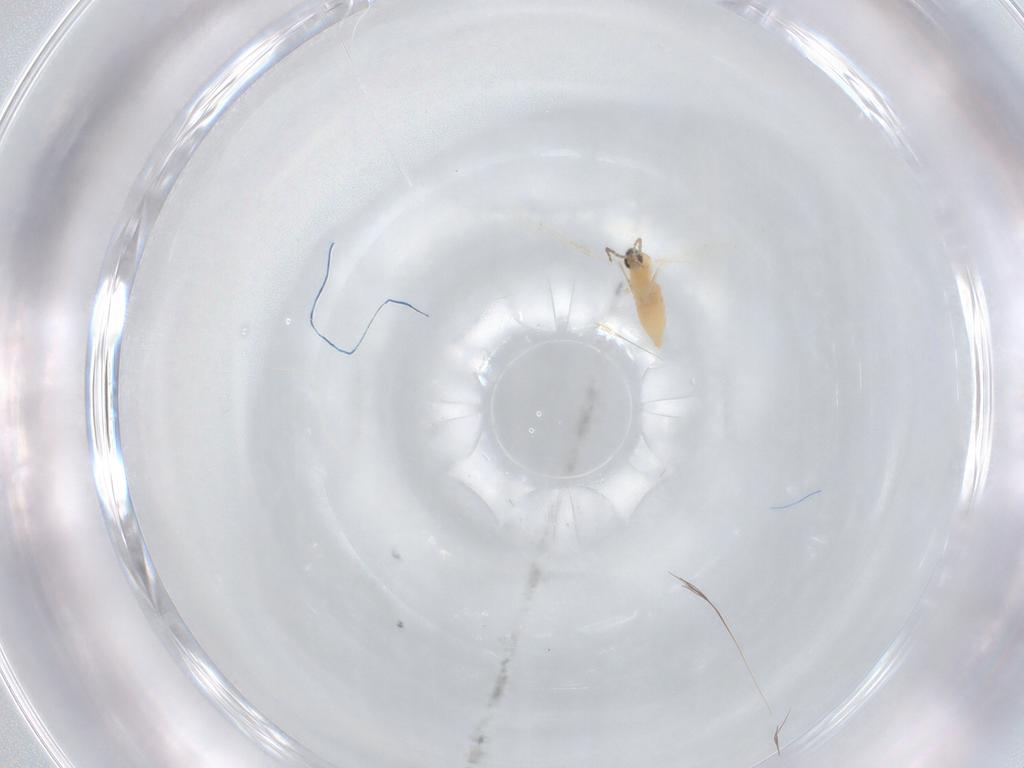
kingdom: Animalia
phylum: Arthropoda
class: Insecta
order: Diptera
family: Cecidomyiidae
